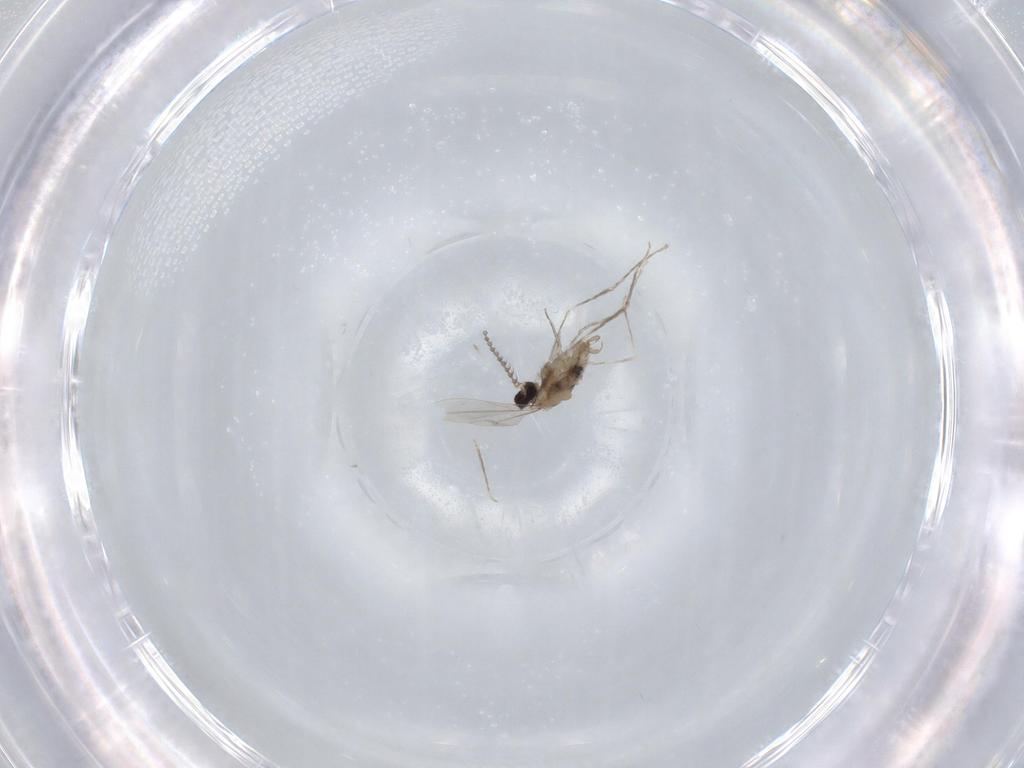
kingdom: Animalia
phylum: Arthropoda
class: Insecta
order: Diptera
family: Cecidomyiidae
